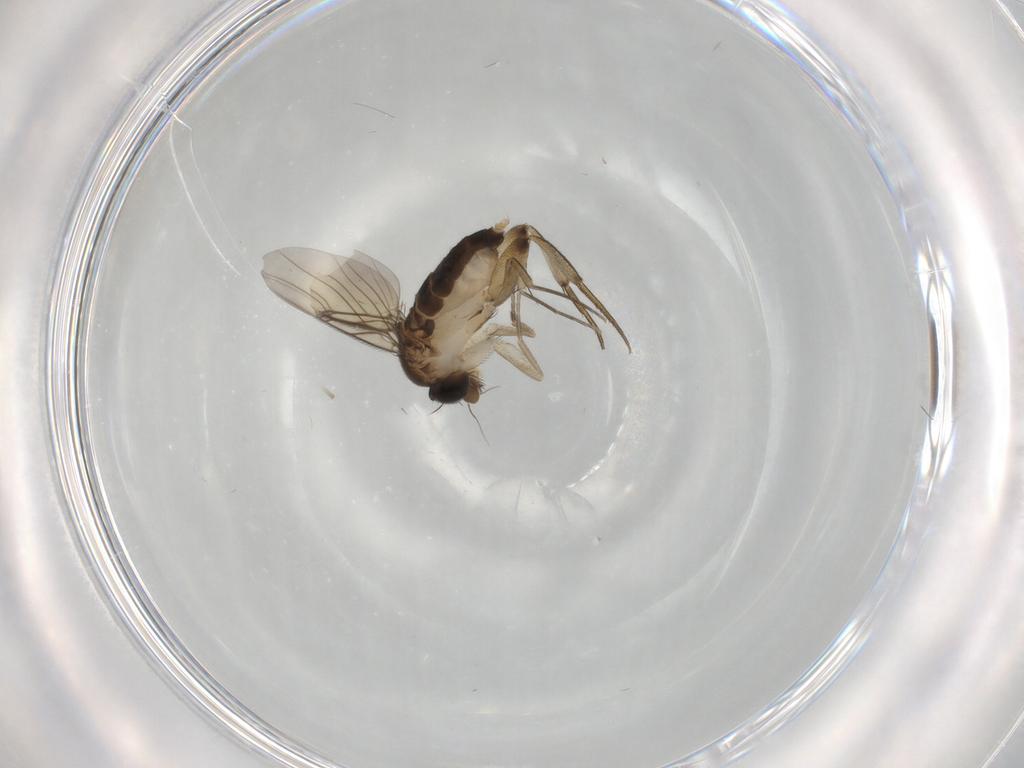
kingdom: Animalia
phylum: Arthropoda
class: Insecta
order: Diptera
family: Phoridae
